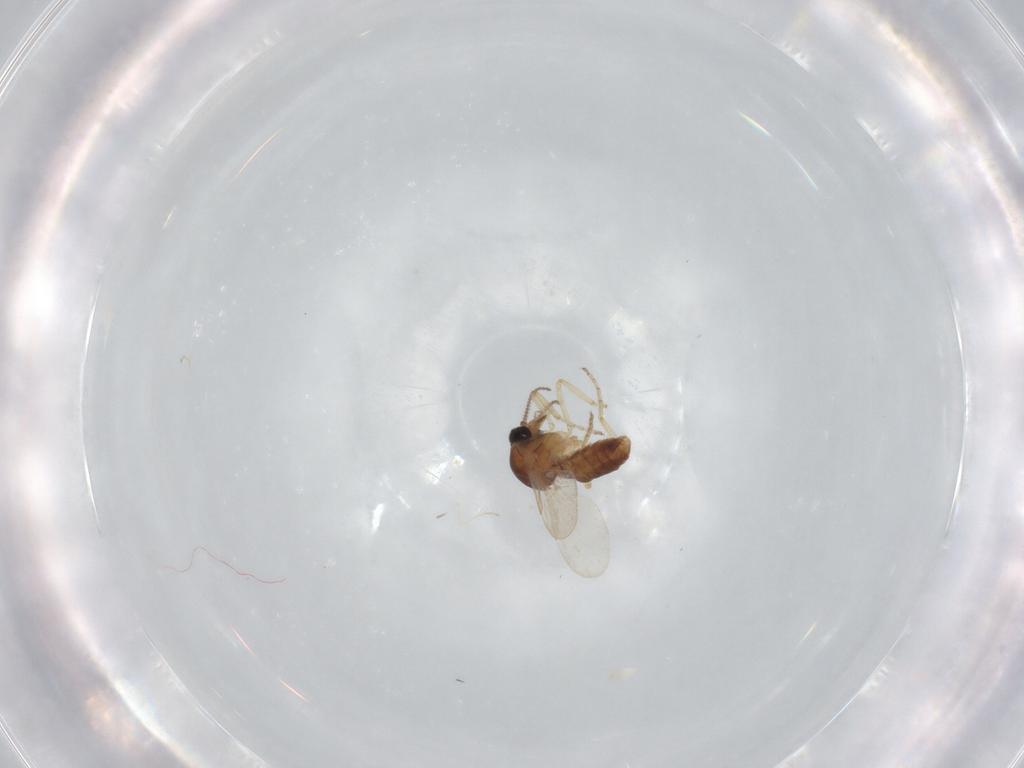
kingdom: Animalia
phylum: Arthropoda
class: Insecta
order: Diptera
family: Ceratopogonidae
